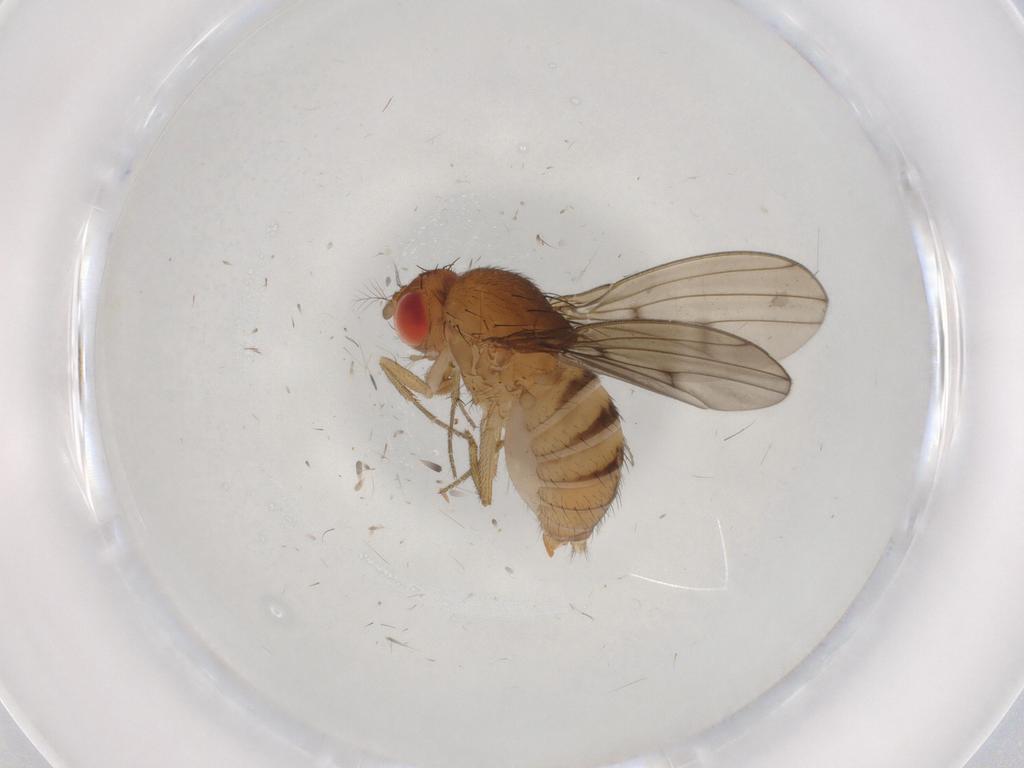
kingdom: Animalia
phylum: Arthropoda
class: Insecta
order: Diptera
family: Drosophilidae
